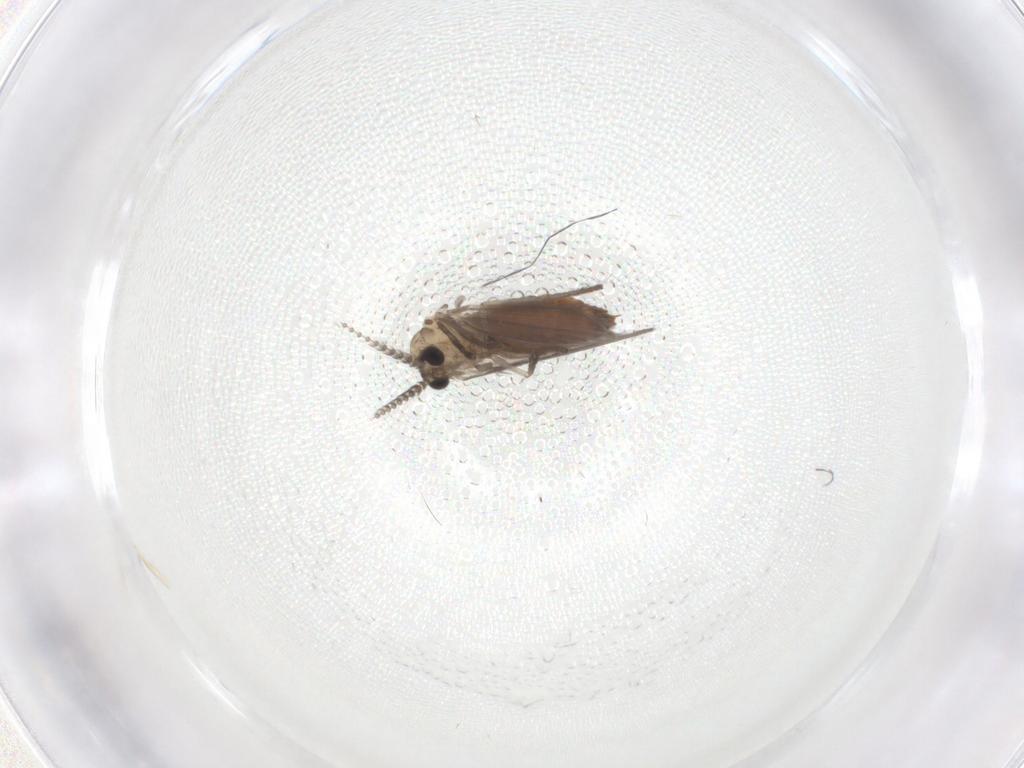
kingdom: Animalia
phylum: Arthropoda
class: Insecta
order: Diptera
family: Psychodidae
